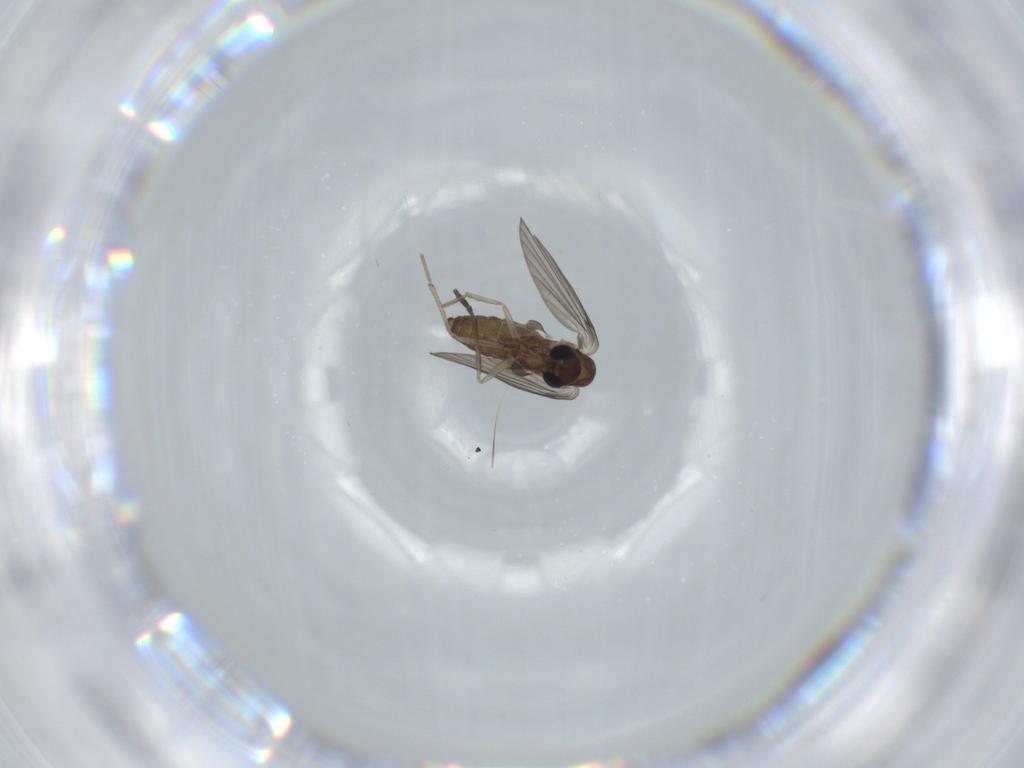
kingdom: Animalia
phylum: Arthropoda
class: Insecta
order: Diptera
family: Psychodidae
